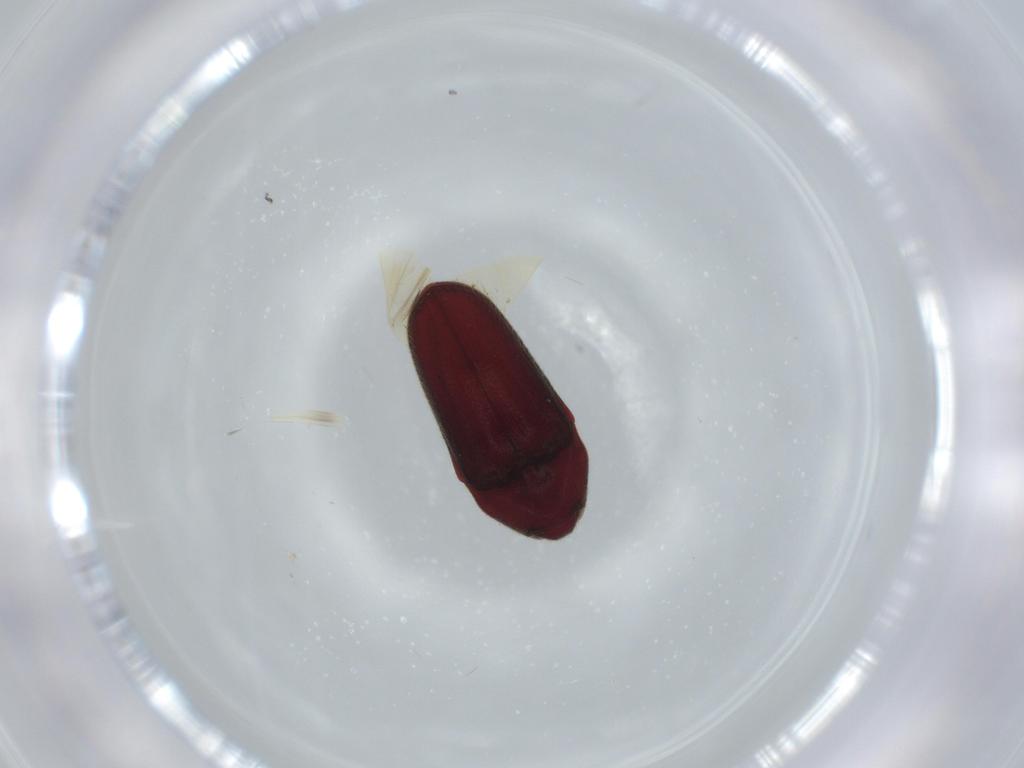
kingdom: Animalia
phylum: Arthropoda
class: Insecta
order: Coleoptera
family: Throscidae
